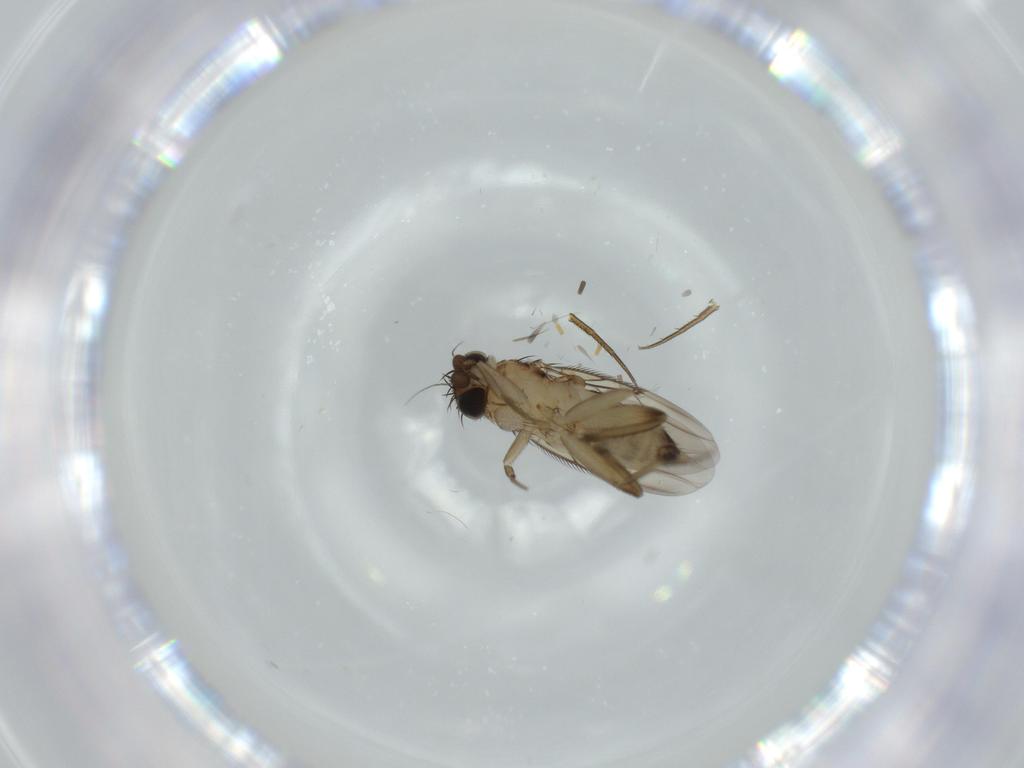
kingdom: Animalia
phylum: Arthropoda
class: Insecta
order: Diptera
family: Phoridae
